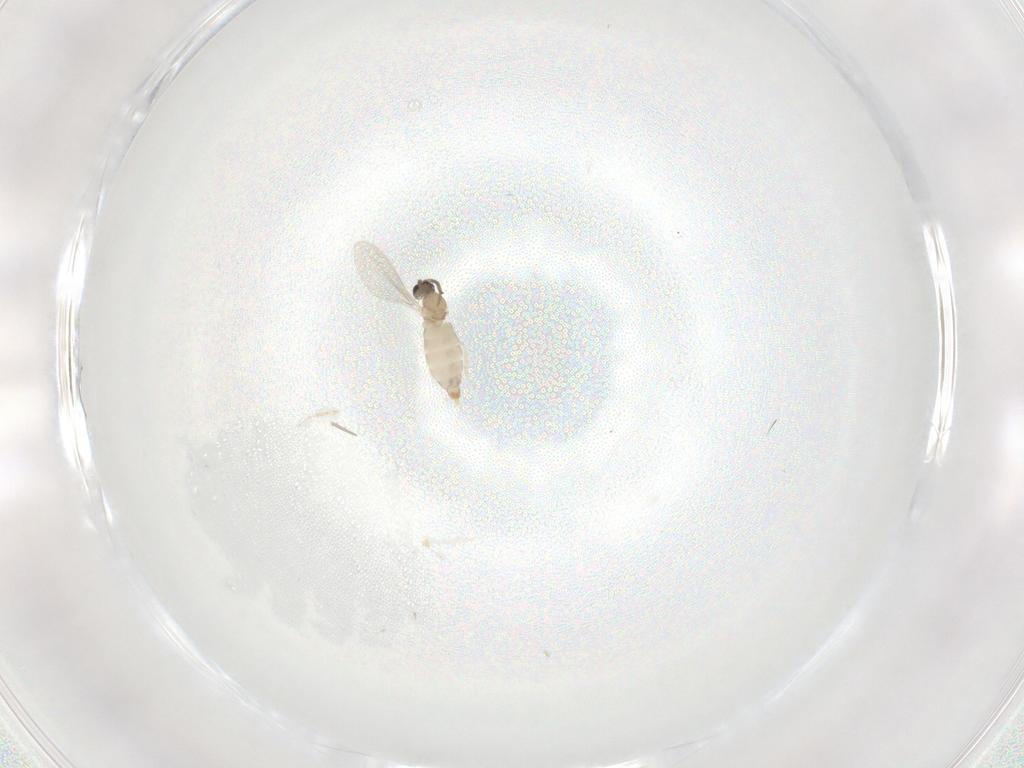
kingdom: Animalia
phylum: Arthropoda
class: Insecta
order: Diptera
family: Cecidomyiidae
